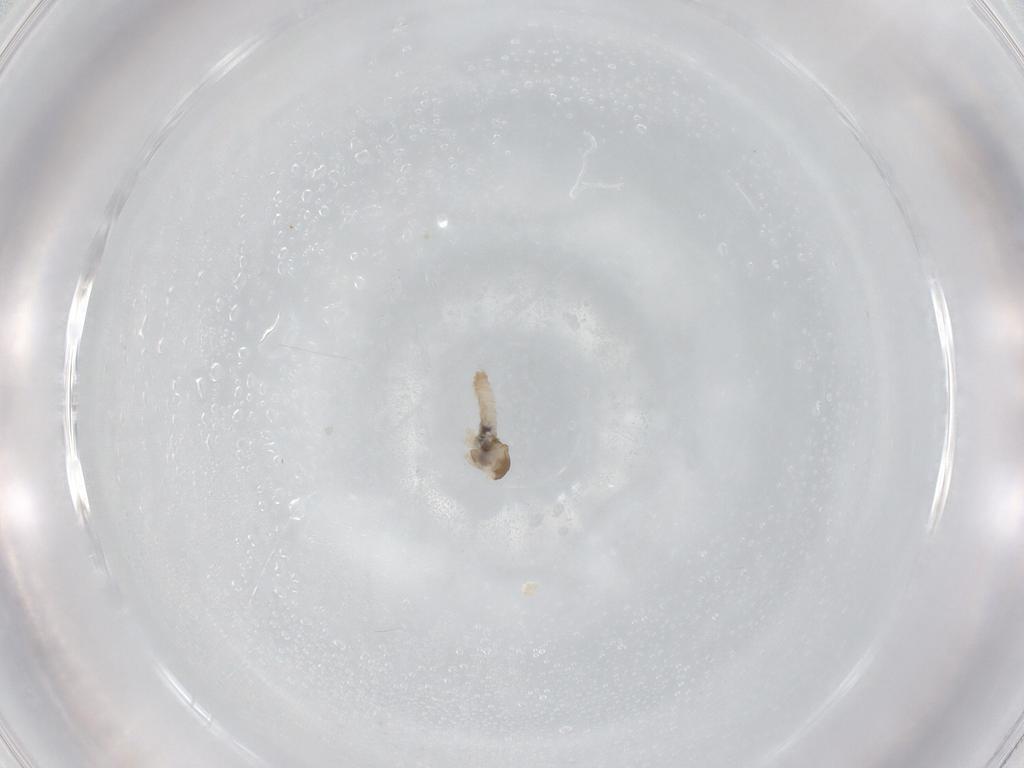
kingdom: Animalia
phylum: Arthropoda
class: Insecta
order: Diptera
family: Cecidomyiidae
